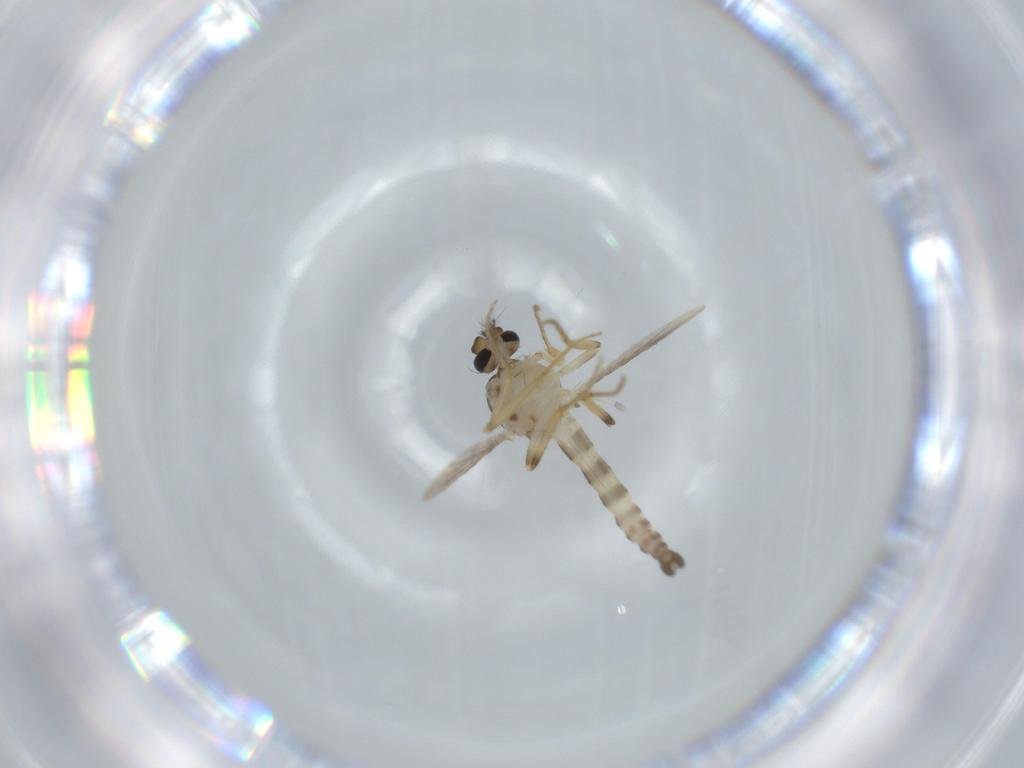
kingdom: Animalia
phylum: Arthropoda
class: Insecta
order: Diptera
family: Ceratopogonidae
